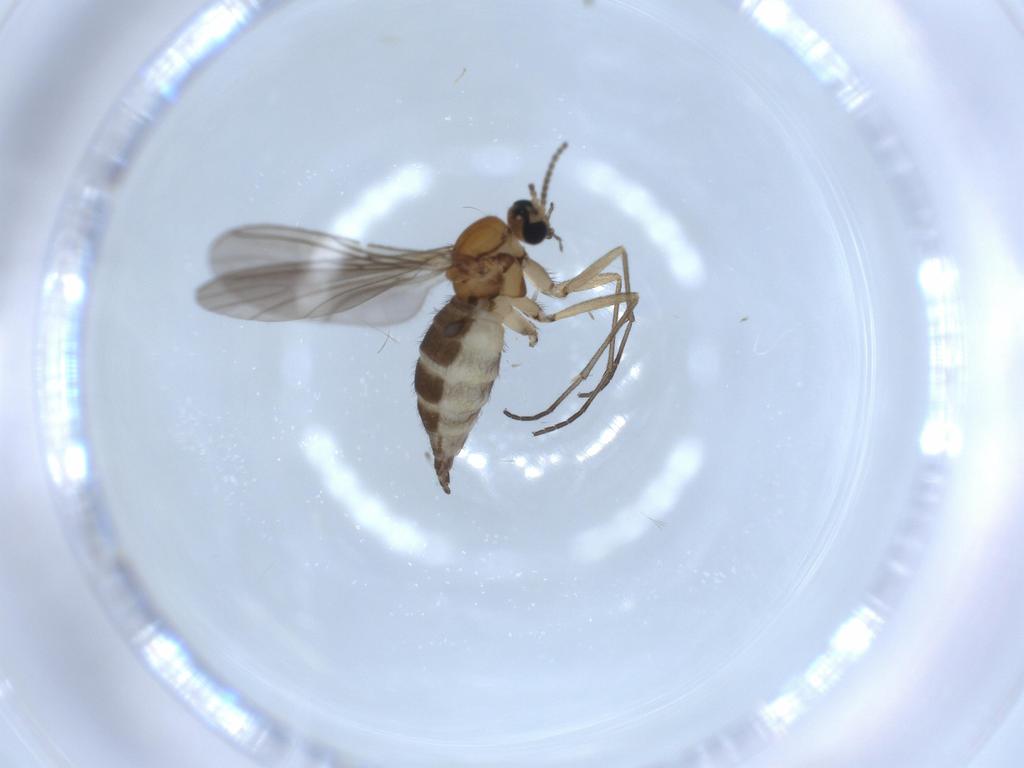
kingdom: Animalia
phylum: Arthropoda
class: Insecta
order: Diptera
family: Sciaridae
